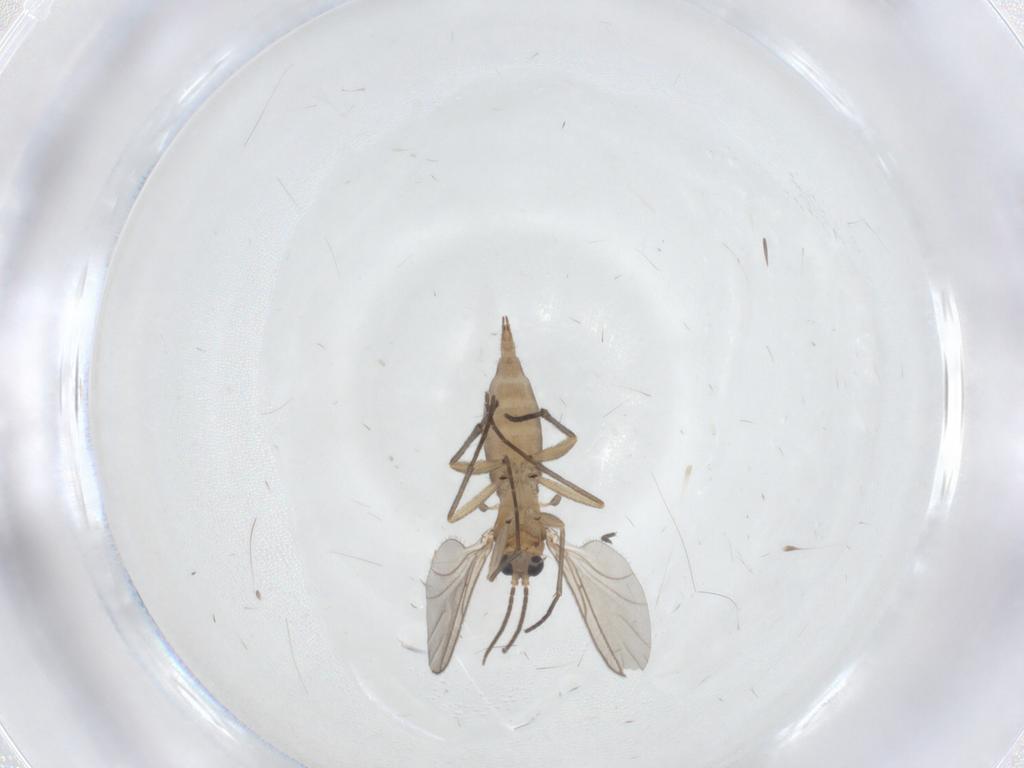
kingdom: Animalia
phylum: Arthropoda
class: Insecta
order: Diptera
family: Sciaridae
